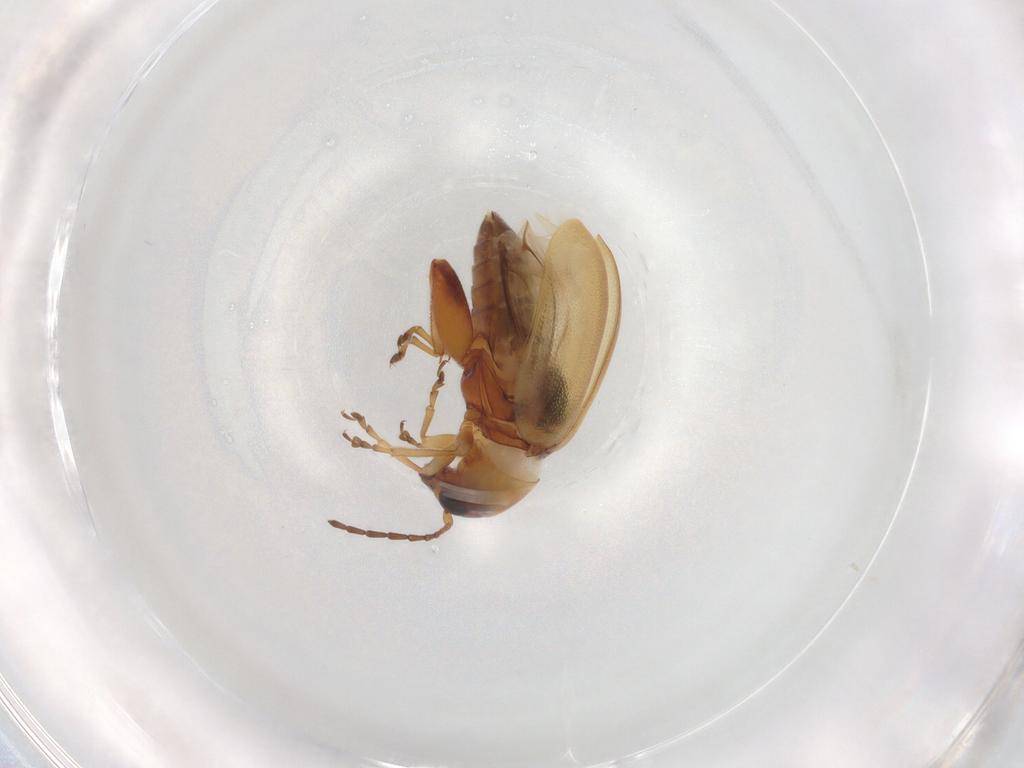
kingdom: Animalia
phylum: Arthropoda
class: Insecta
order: Coleoptera
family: Chrysomelidae
